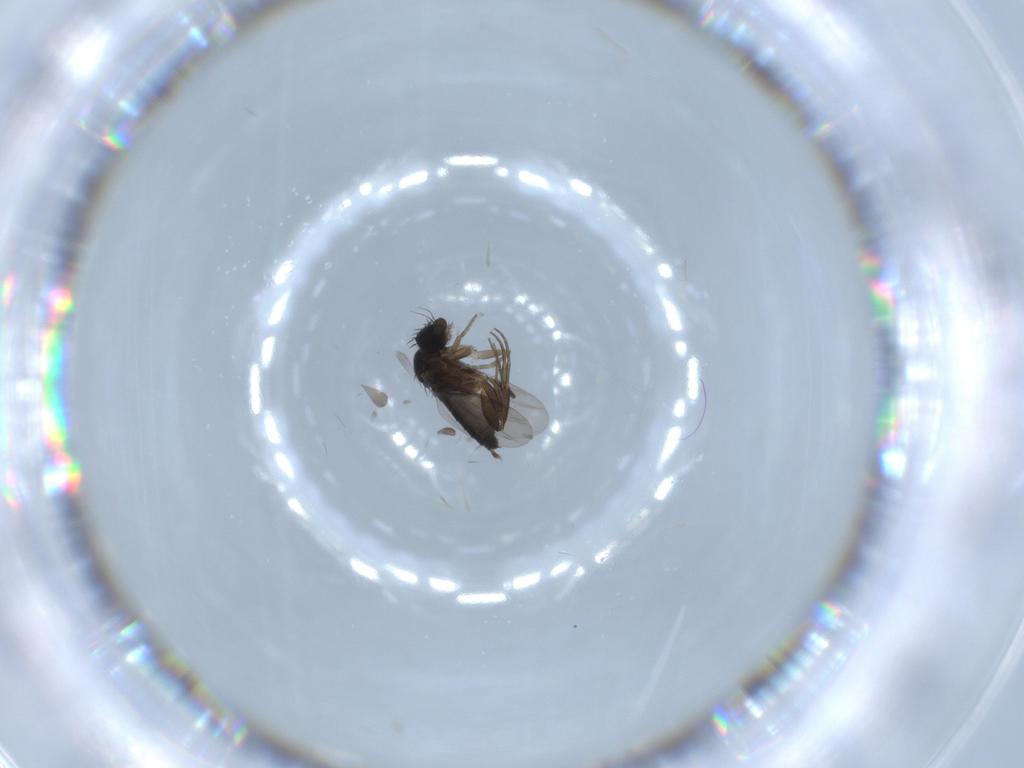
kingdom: Animalia
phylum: Arthropoda
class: Insecta
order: Diptera
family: Phoridae
